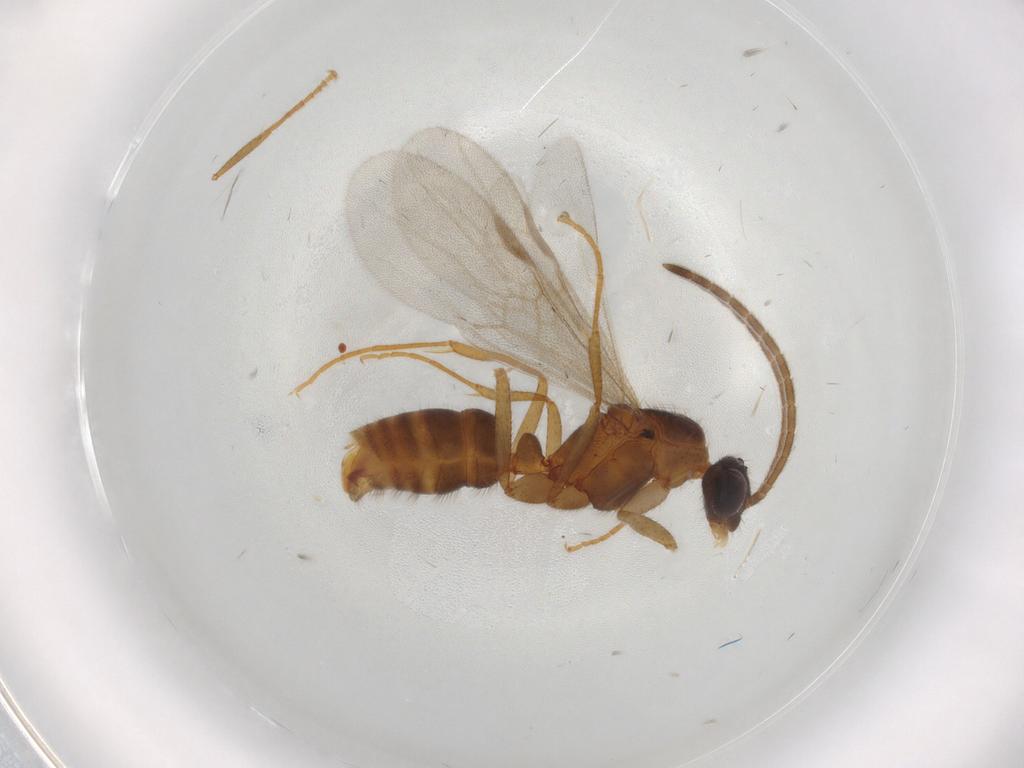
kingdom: Animalia
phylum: Arthropoda
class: Insecta
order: Hymenoptera
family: Formicidae
